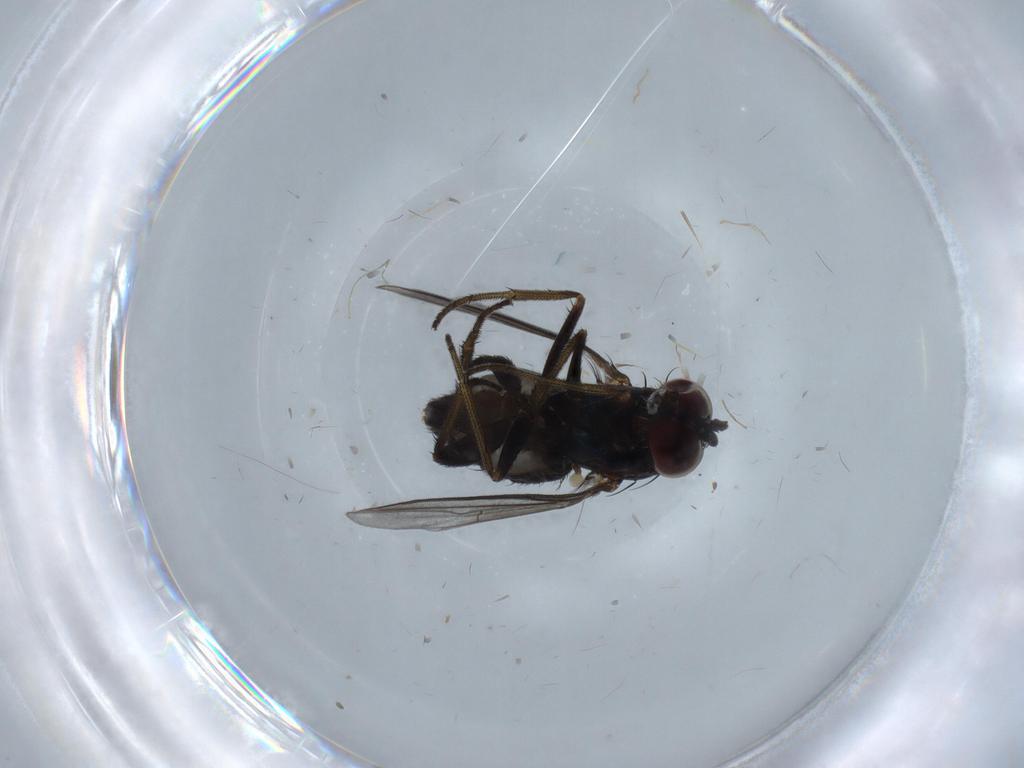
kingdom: Animalia
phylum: Arthropoda
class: Insecta
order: Diptera
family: Dolichopodidae
